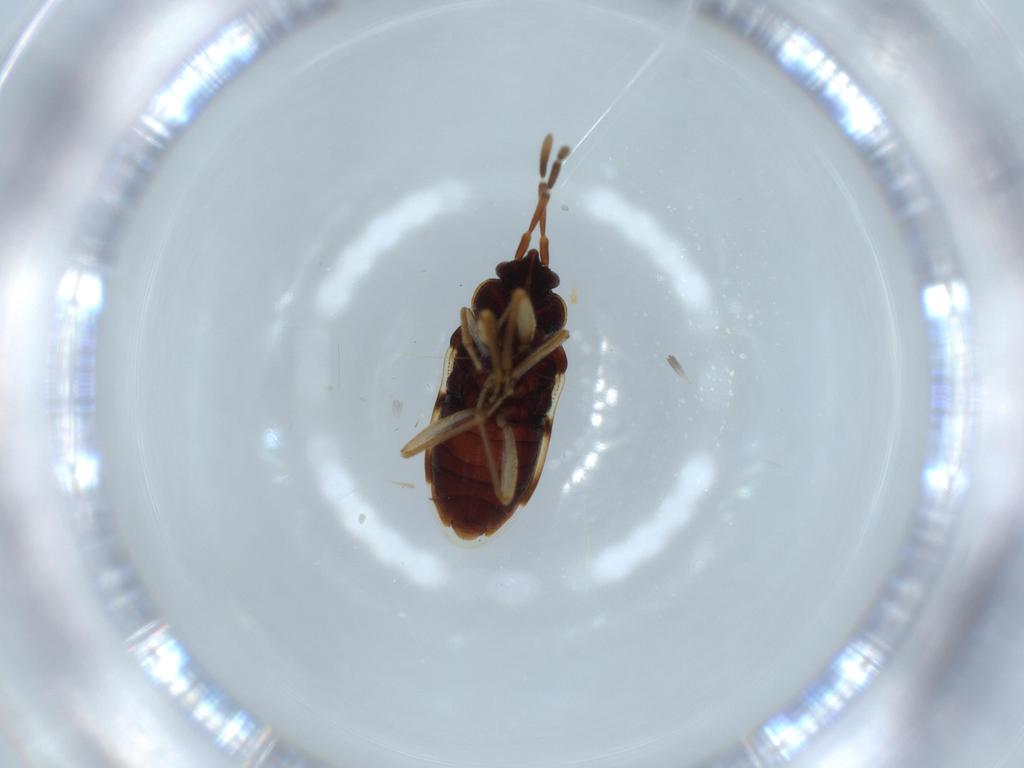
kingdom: Animalia
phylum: Arthropoda
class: Insecta
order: Hemiptera
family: Rhyparochromidae
